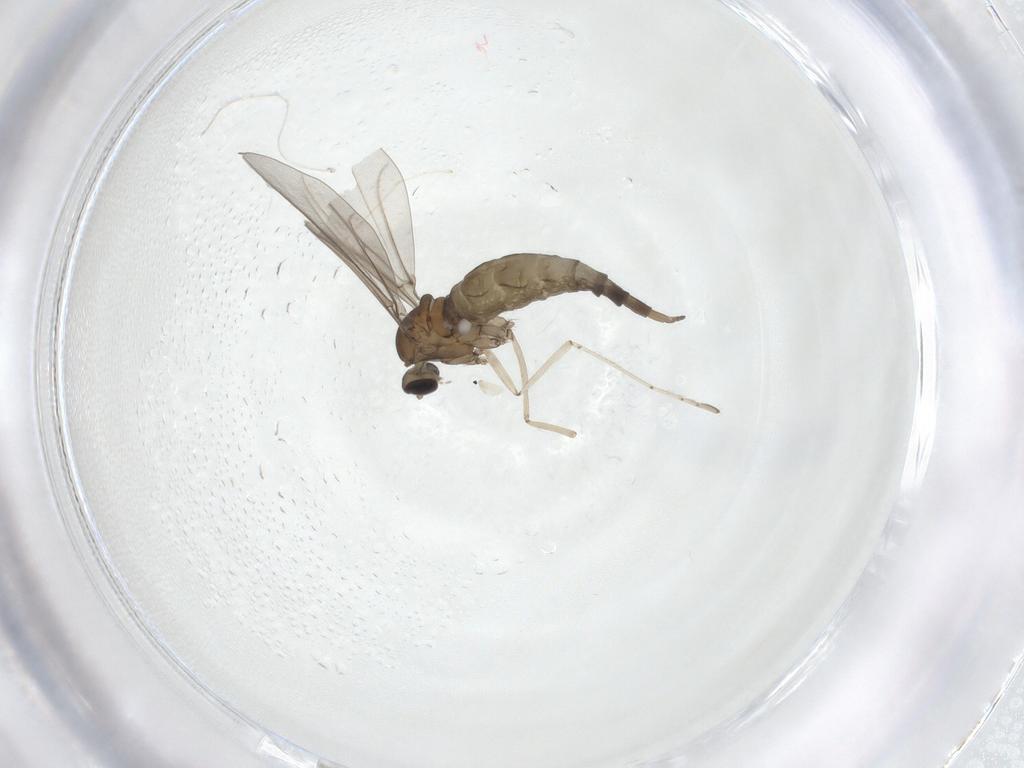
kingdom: Animalia
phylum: Arthropoda
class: Insecta
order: Diptera
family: Cecidomyiidae
